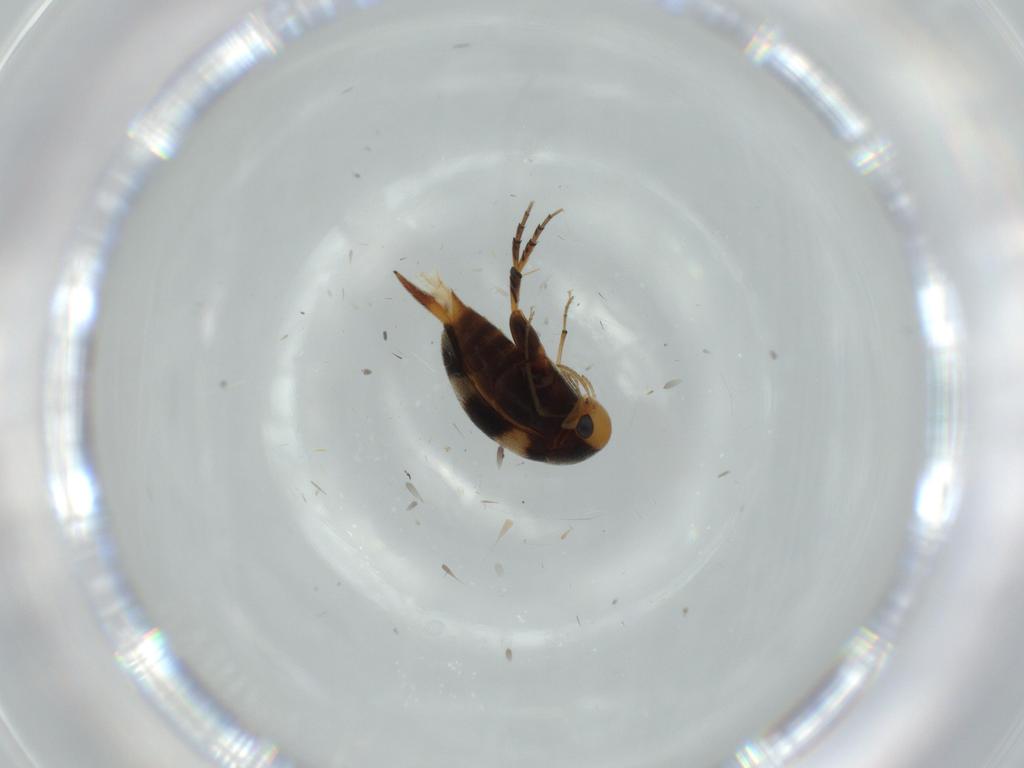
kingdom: Animalia
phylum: Arthropoda
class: Insecta
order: Coleoptera
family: Mordellidae
